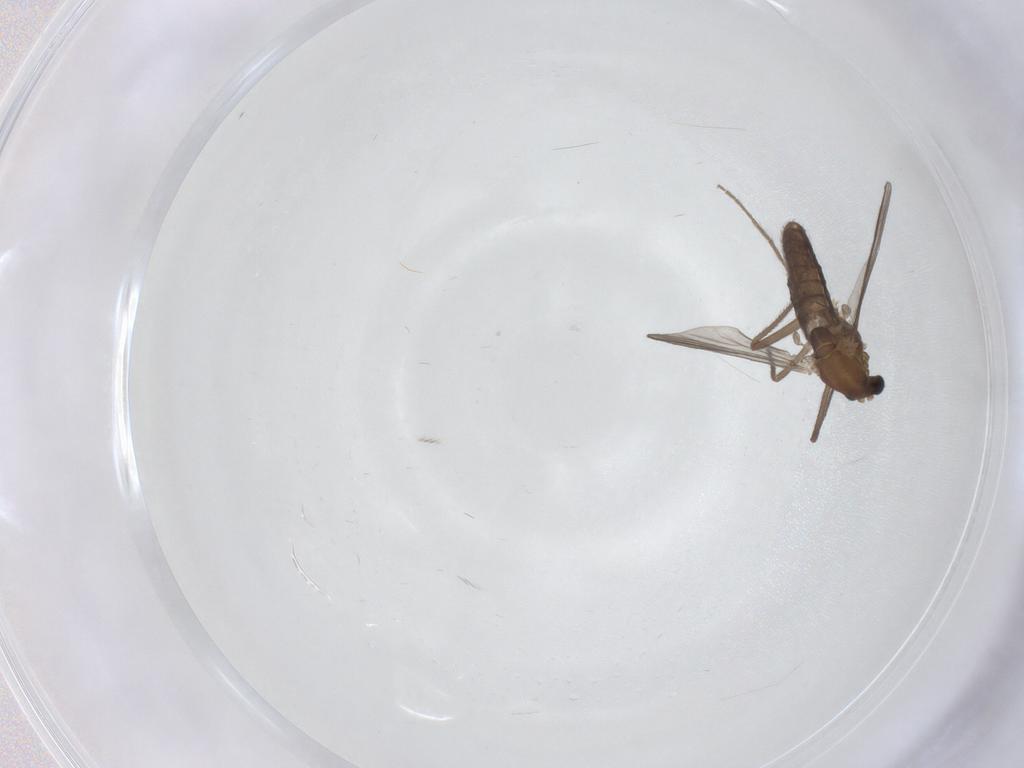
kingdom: Animalia
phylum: Arthropoda
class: Insecta
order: Diptera
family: Chironomidae
